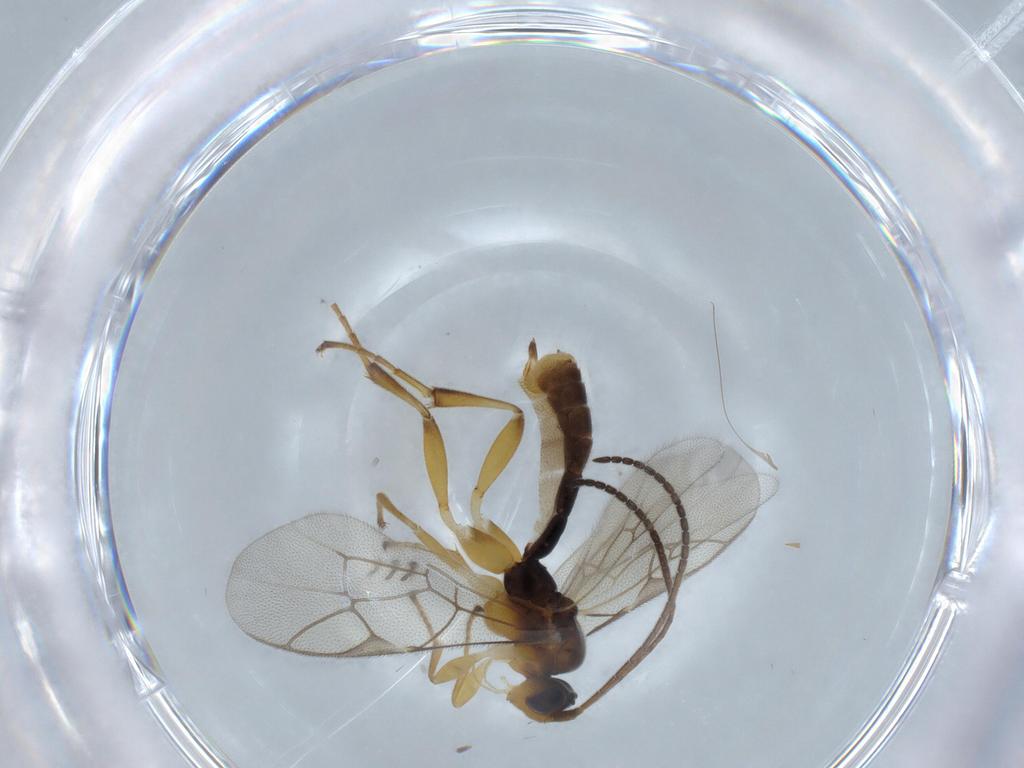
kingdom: Animalia
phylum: Arthropoda
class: Insecta
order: Hymenoptera
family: Ichneumonidae
